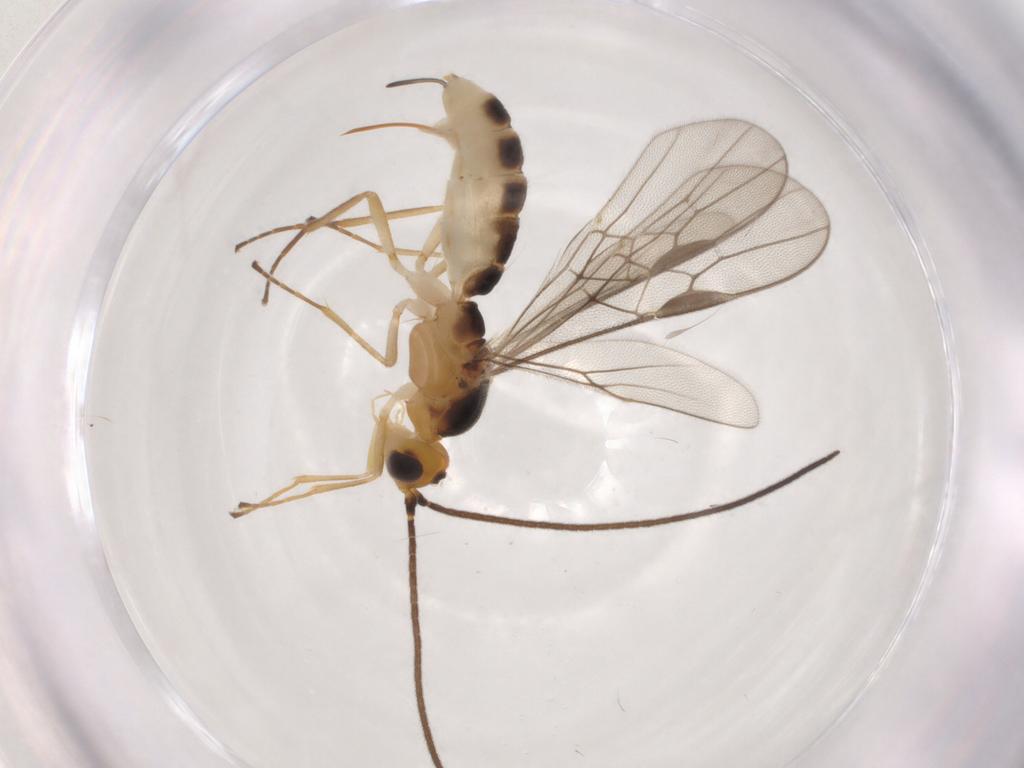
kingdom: Animalia
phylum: Arthropoda
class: Insecta
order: Hymenoptera
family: Braconidae
